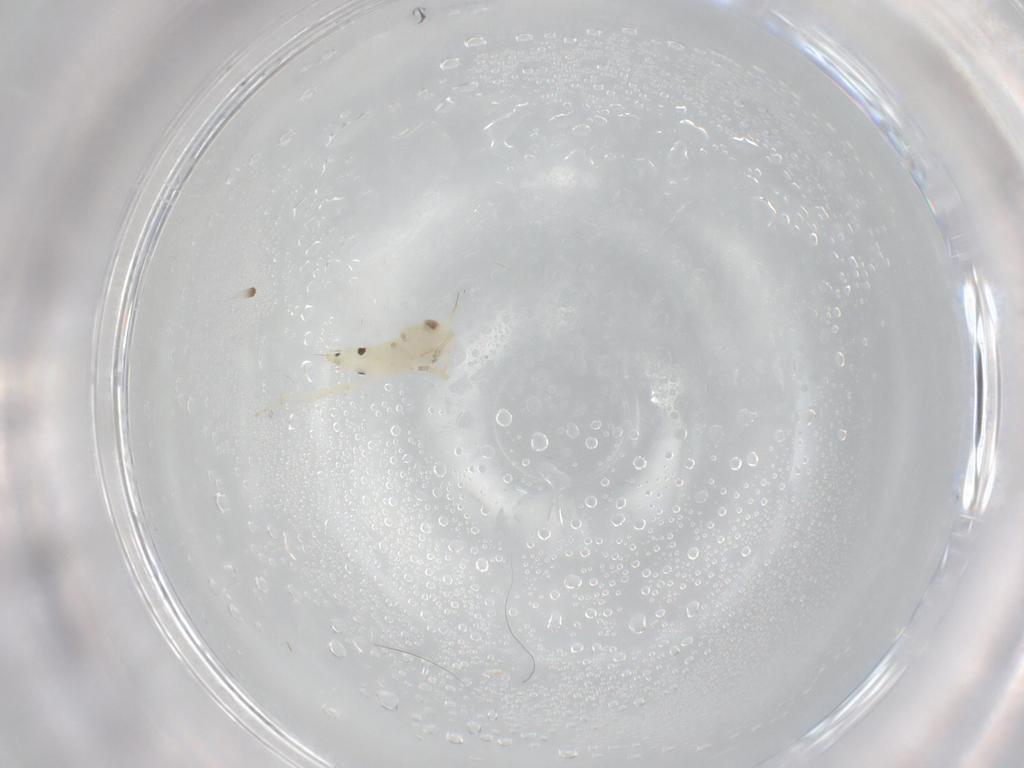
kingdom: Animalia
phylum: Arthropoda
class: Insecta
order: Hemiptera
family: Cicadellidae
